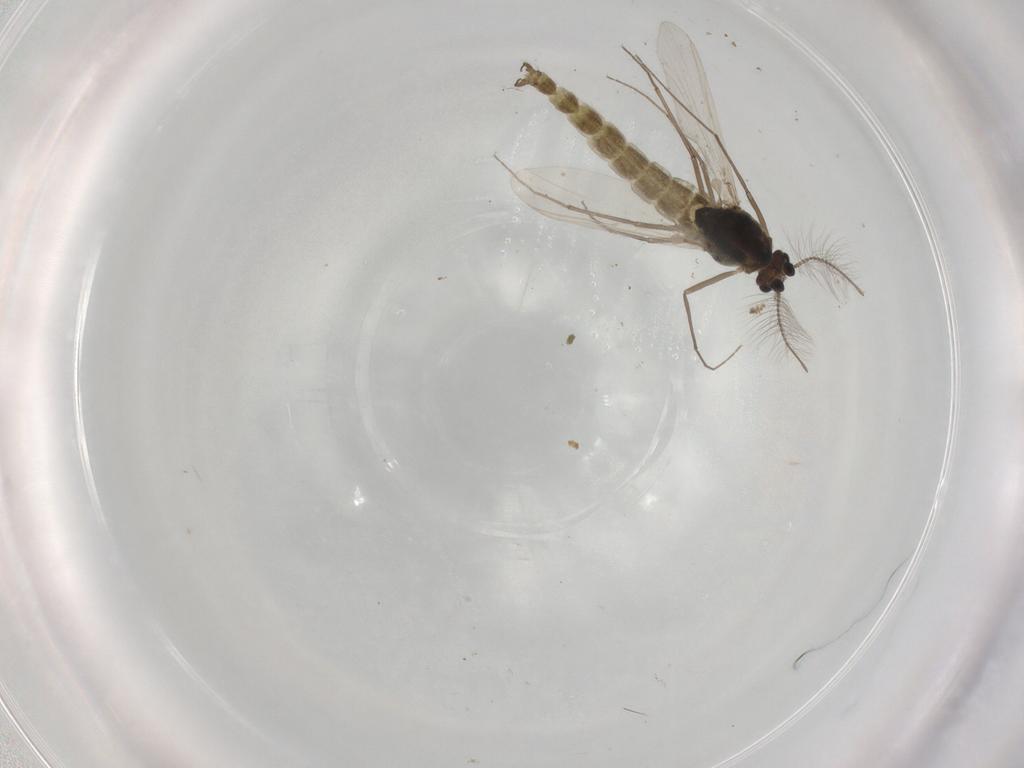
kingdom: Animalia
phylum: Arthropoda
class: Insecta
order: Diptera
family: Chironomidae
